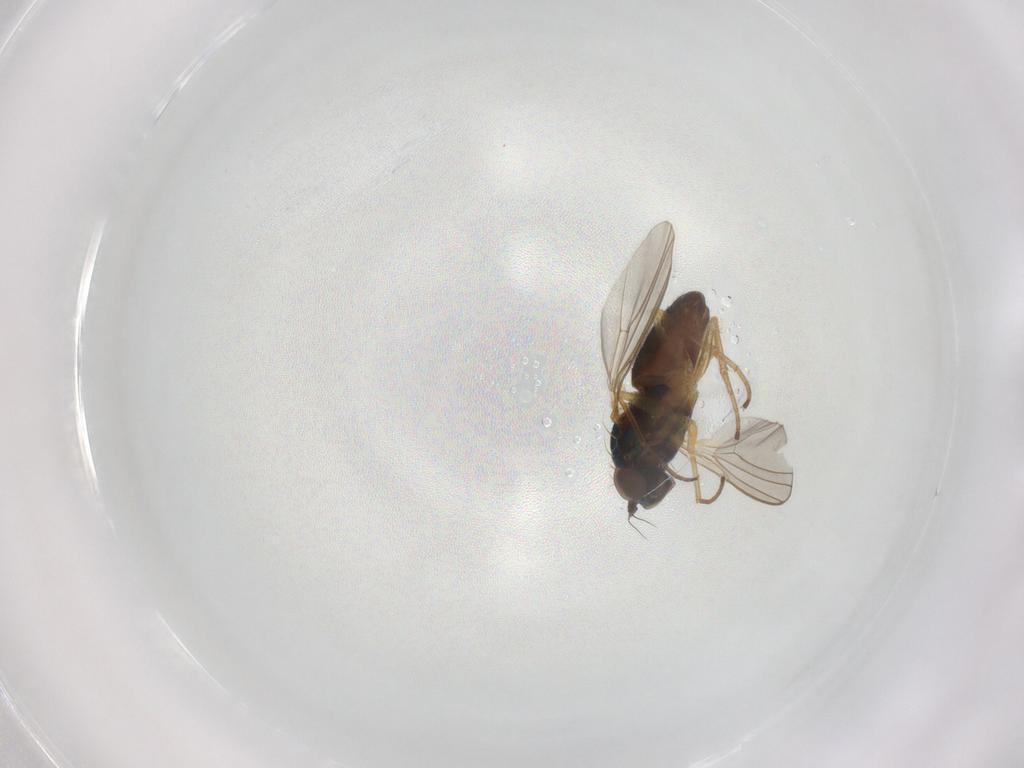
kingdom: Animalia
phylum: Arthropoda
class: Insecta
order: Diptera
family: Dolichopodidae
